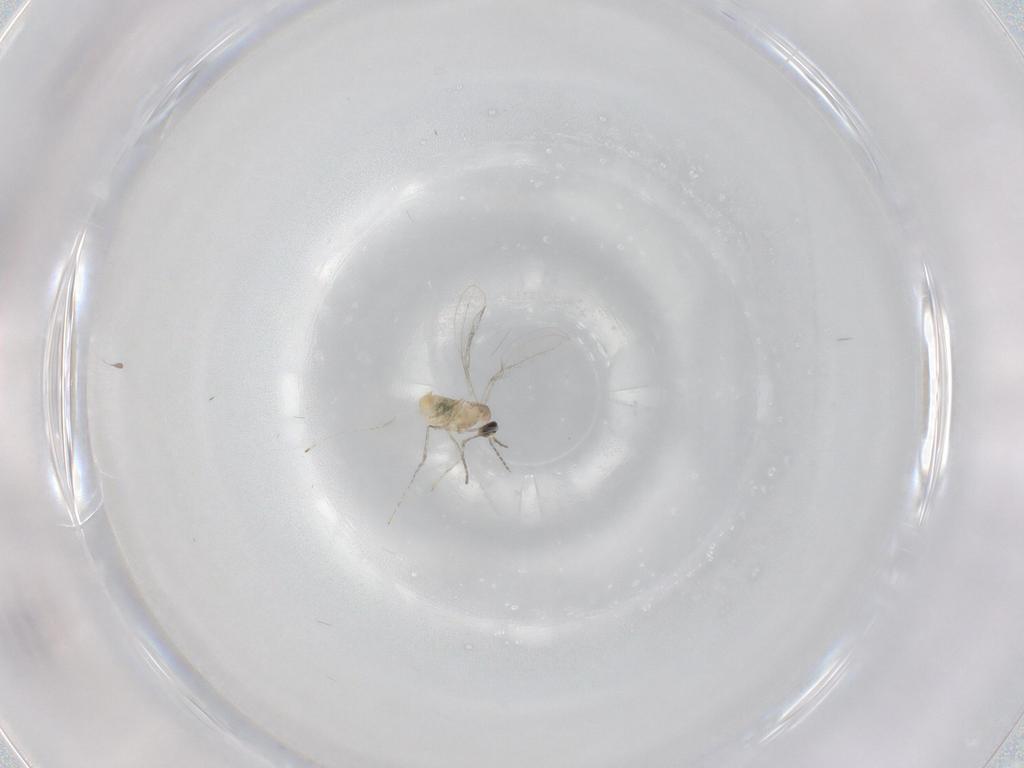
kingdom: Animalia
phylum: Arthropoda
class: Insecta
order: Diptera
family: Cecidomyiidae
